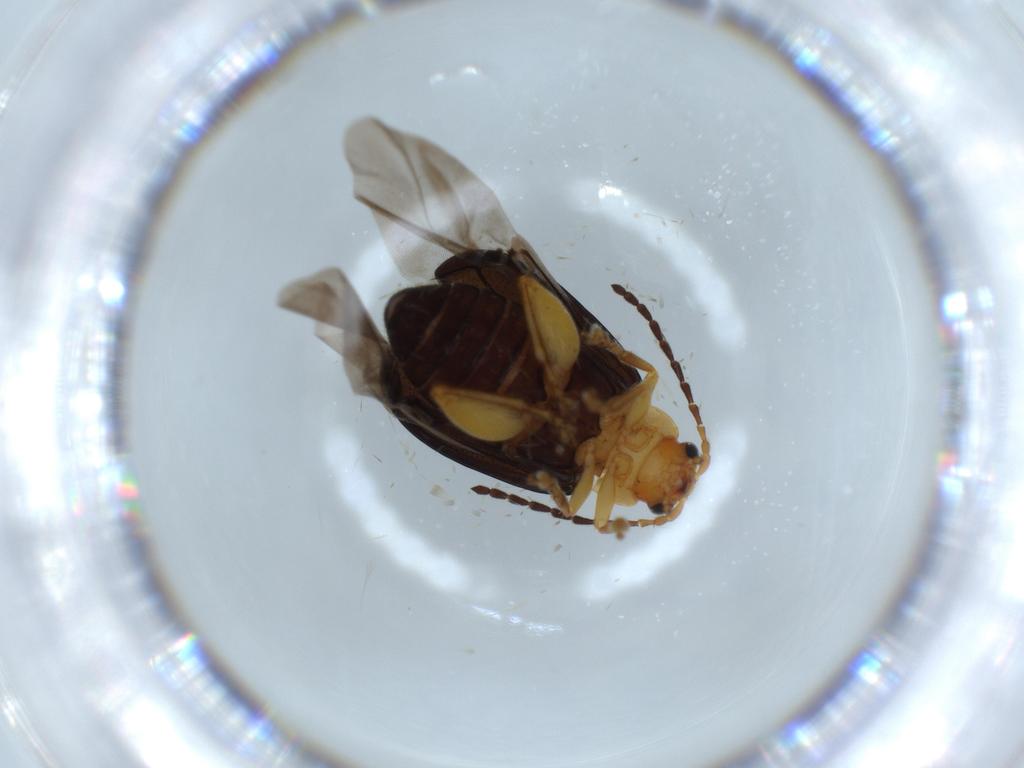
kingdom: Animalia
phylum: Arthropoda
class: Insecta
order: Coleoptera
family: Chrysomelidae
